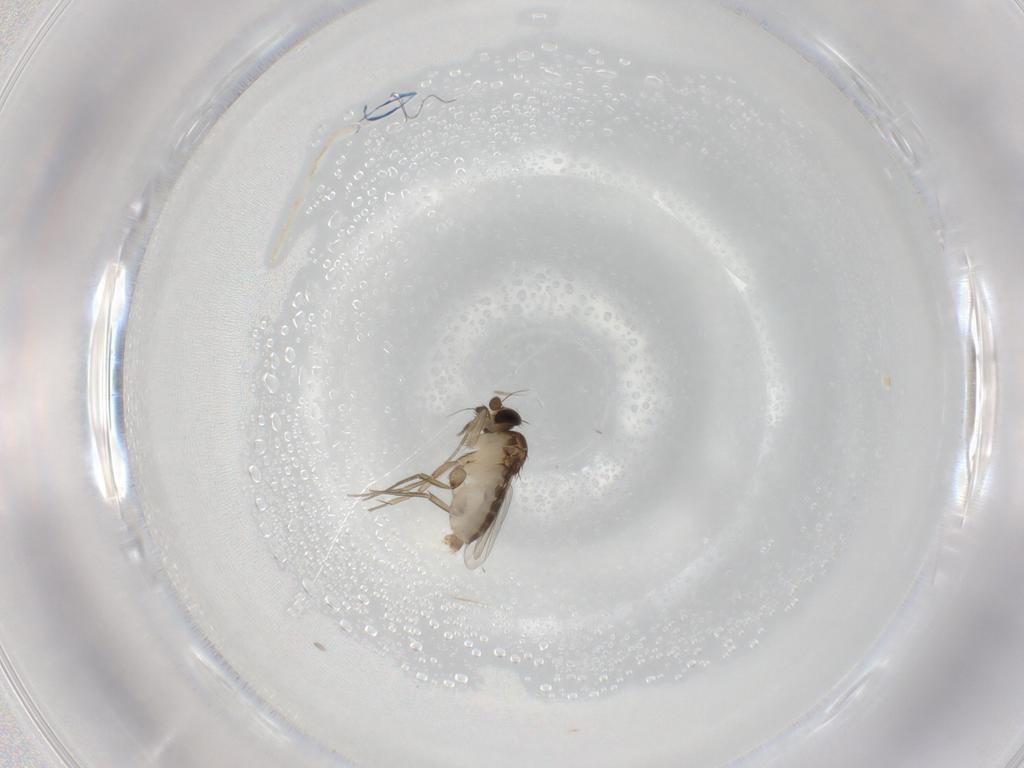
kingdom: Animalia
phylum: Arthropoda
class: Insecta
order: Diptera
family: Phoridae
